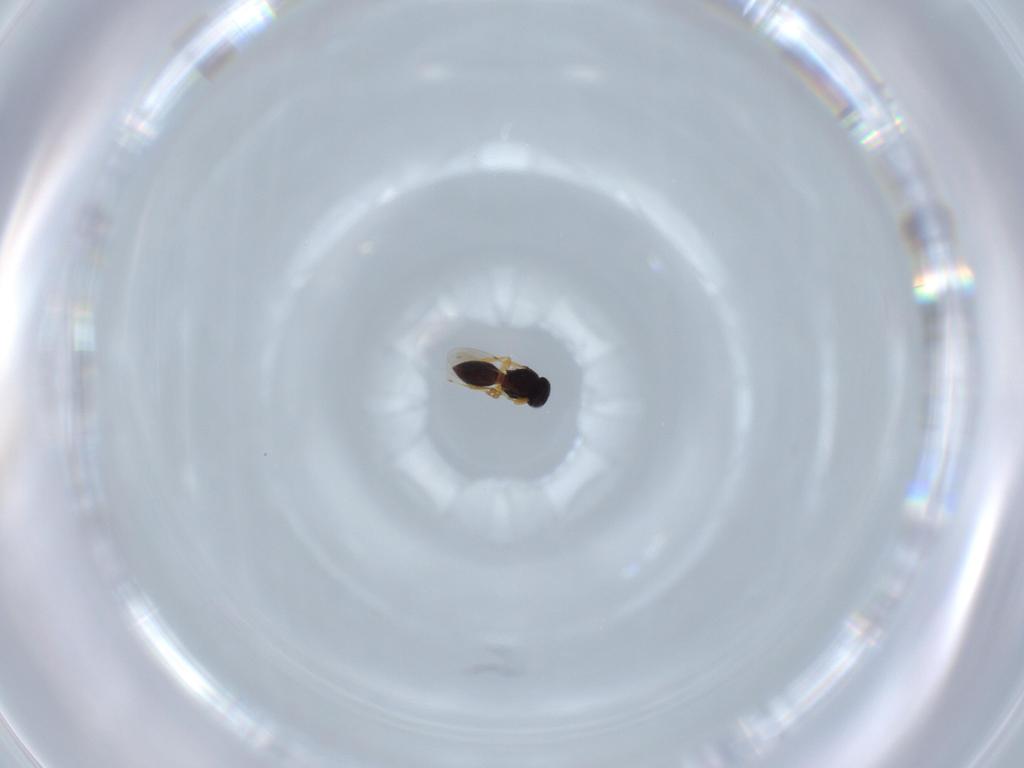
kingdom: Animalia
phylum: Arthropoda
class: Insecta
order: Hymenoptera
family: Platygastridae
